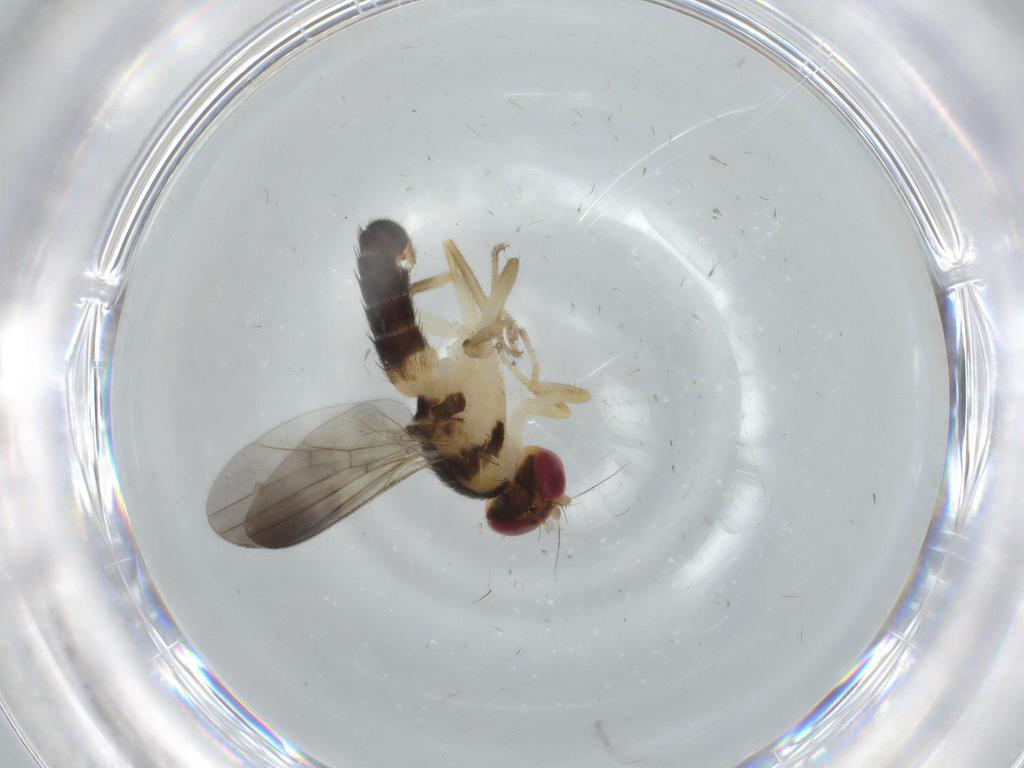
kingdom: Animalia
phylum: Arthropoda
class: Insecta
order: Diptera
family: Clusiidae
